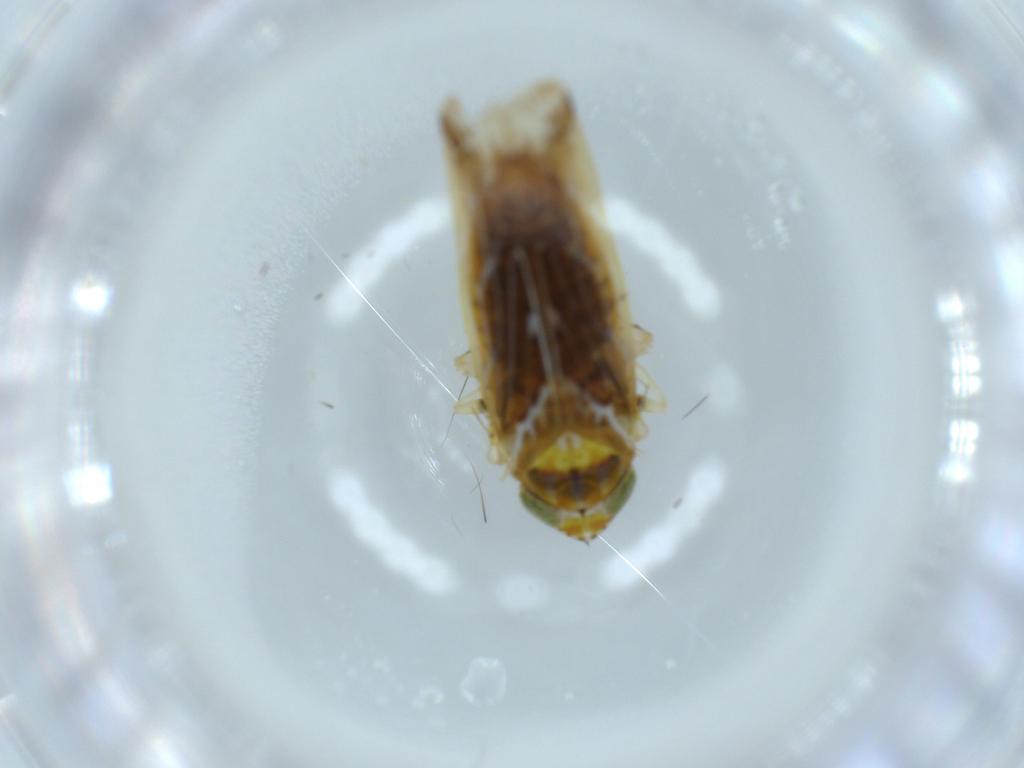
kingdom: Animalia
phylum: Arthropoda
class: Insecta
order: Hemiptera
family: Cicadellidae
